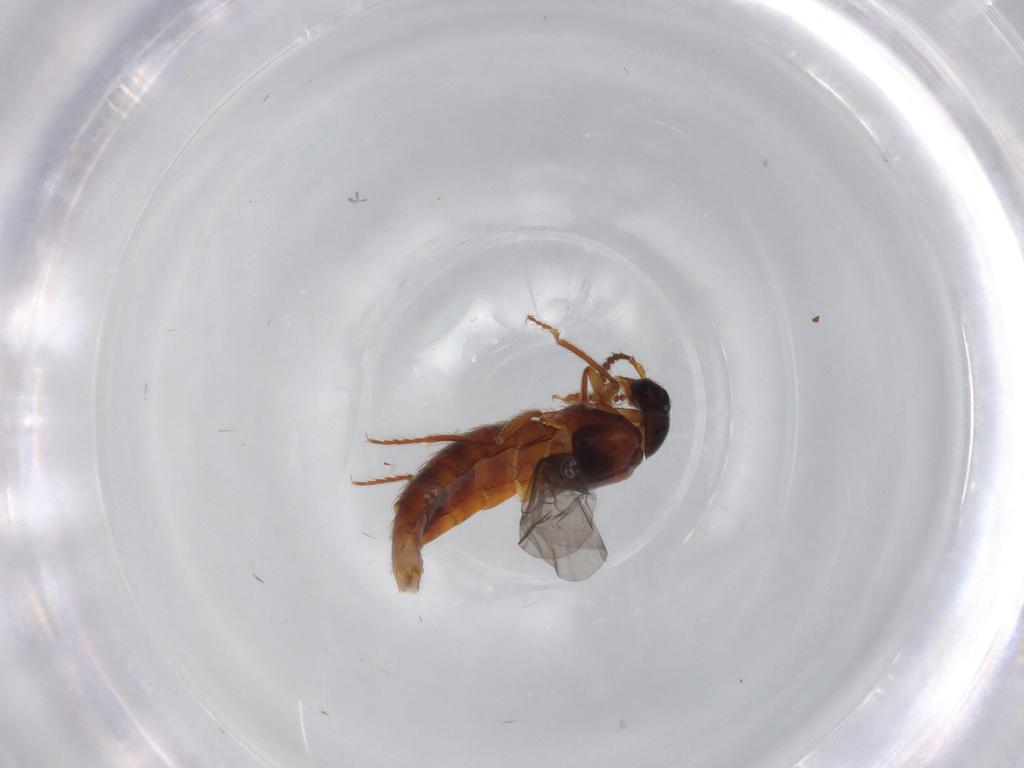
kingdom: Animalia
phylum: Arthropoda
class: Insecta
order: Coleoptera
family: Staphylinidae
